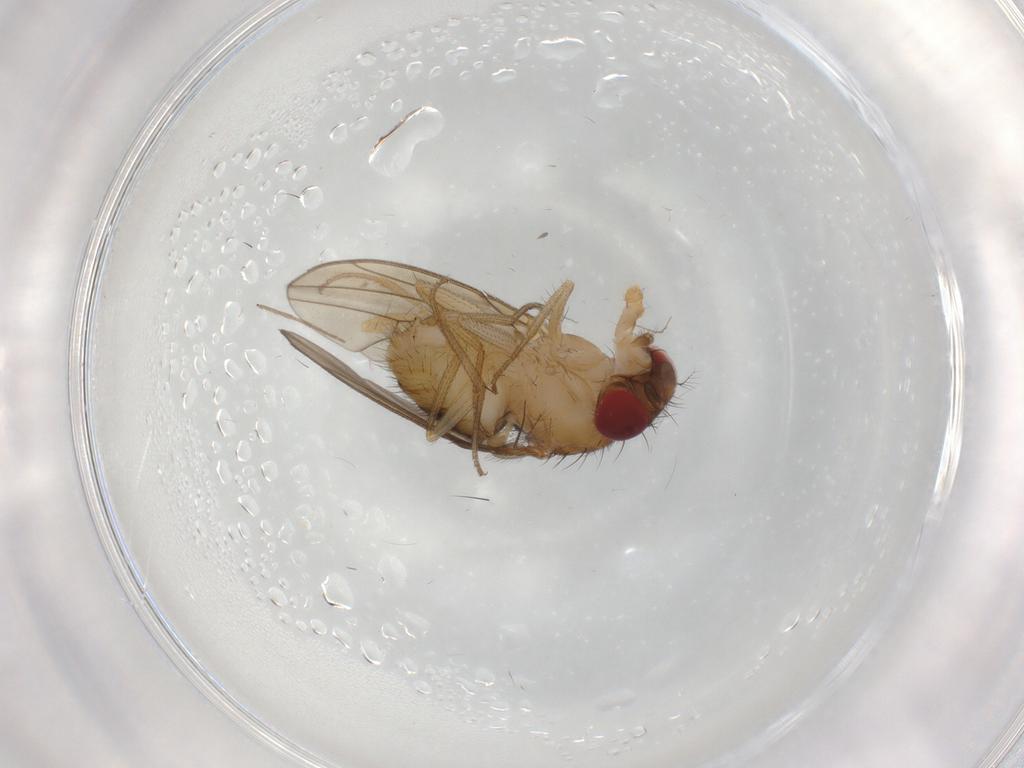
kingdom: Animalia
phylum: Arthropoda
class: Insecta
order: Diptera
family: Drosophilidae
